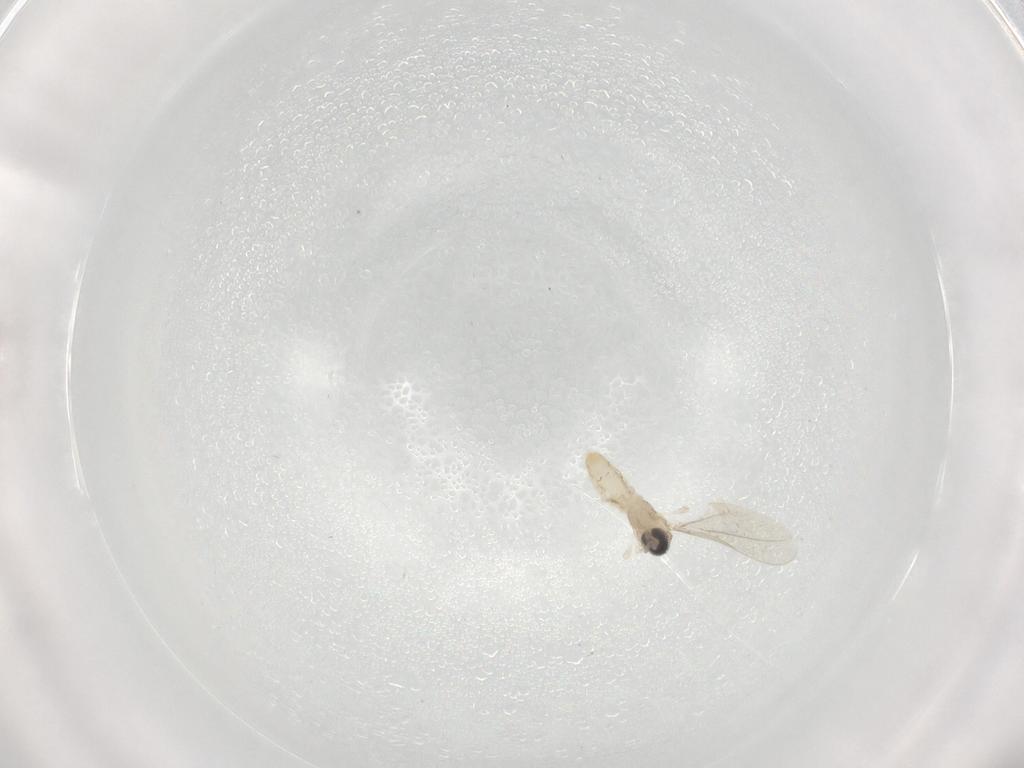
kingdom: Animalia
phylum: Arthropoda
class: Insecta
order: Diptera
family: Cecidomyiidae
